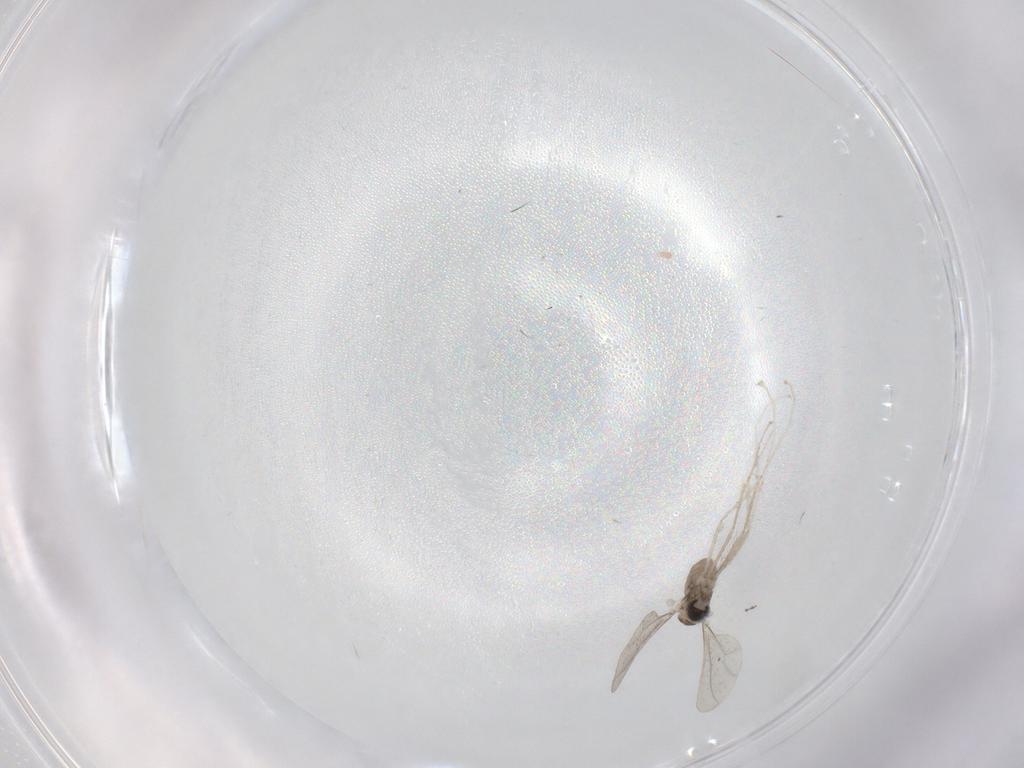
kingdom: Animalia
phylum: Arthropoda
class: Insecta
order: Diptera
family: Cecidomyiidae
